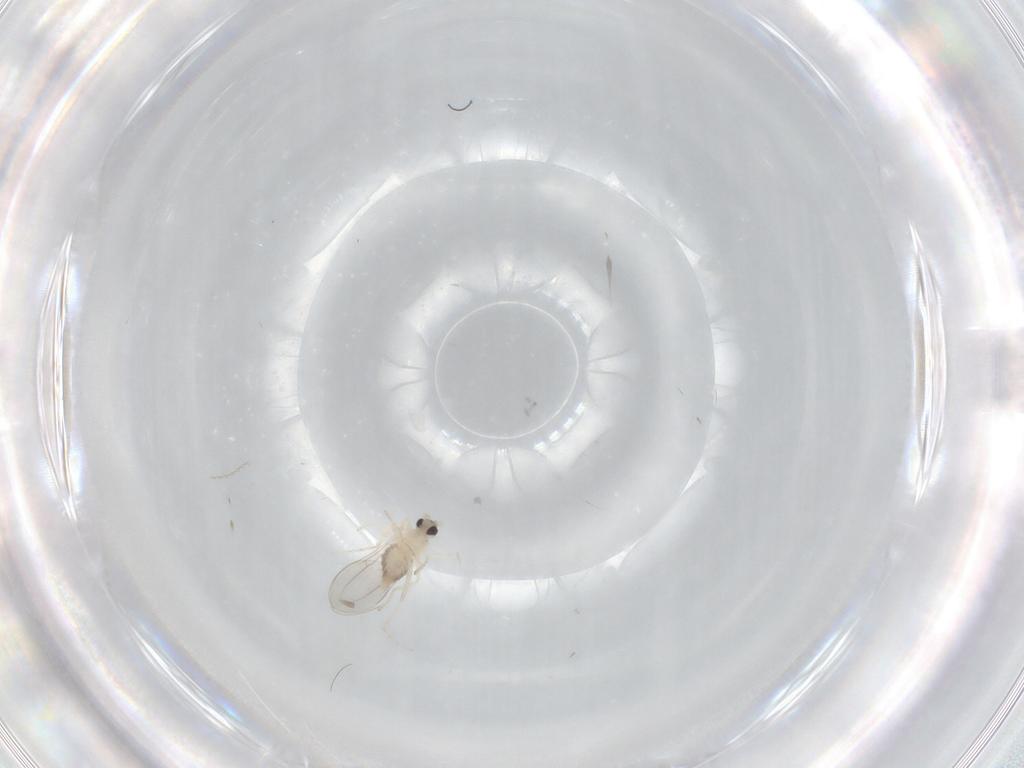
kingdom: Animalia
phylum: Arthropoda
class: Insecta
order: Diptera
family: Cecidomyiidae
